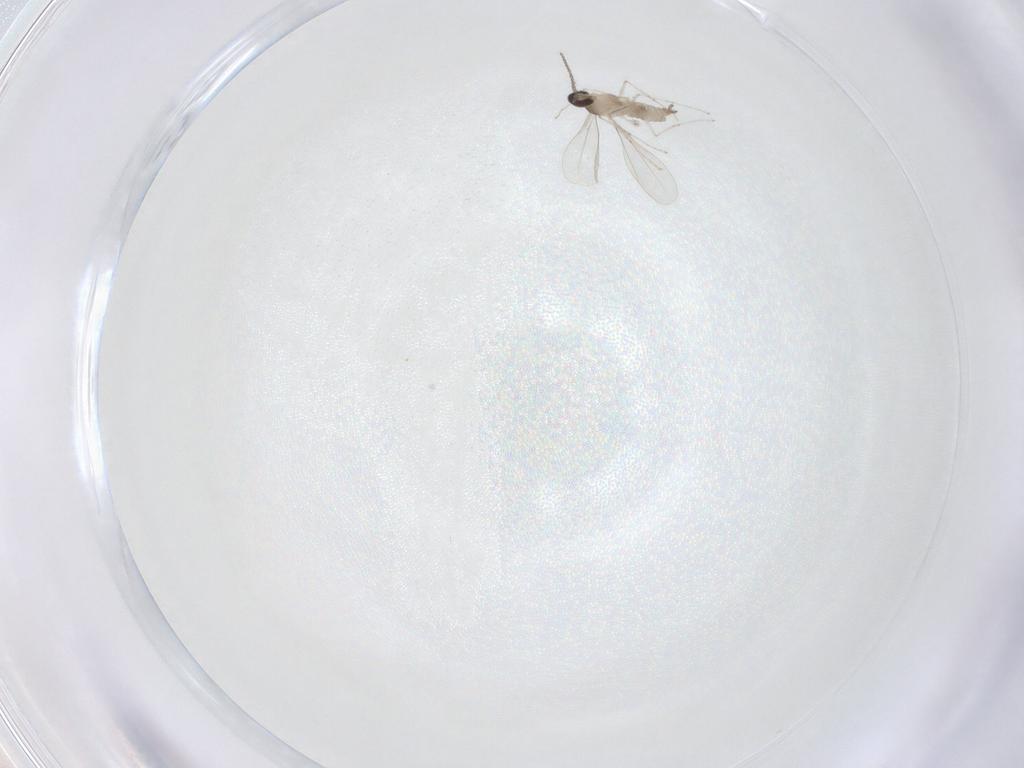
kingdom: Animalia
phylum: Arthropoda
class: Insecta
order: Diptera
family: Cecidomyiidae
